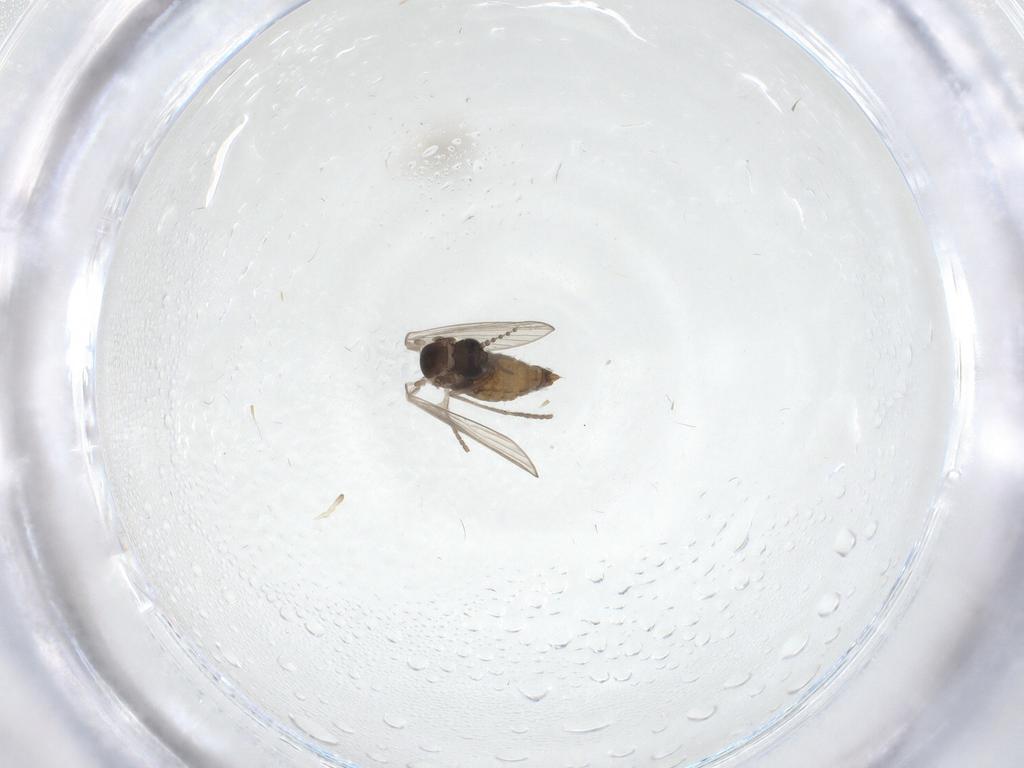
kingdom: Animalia
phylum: Arthropoda
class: Insecta
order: Diptera
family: Psychodidae
